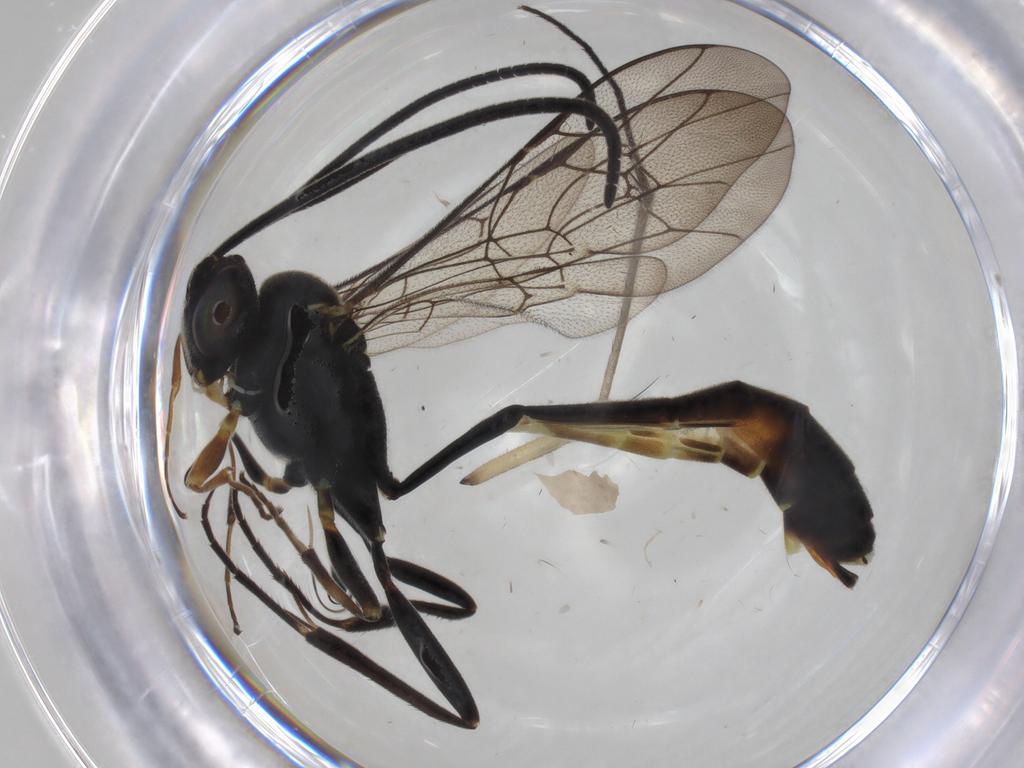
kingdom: Animalia
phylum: Arthropoda
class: Insecta
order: Hymenoptera
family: Ichneumonidae
